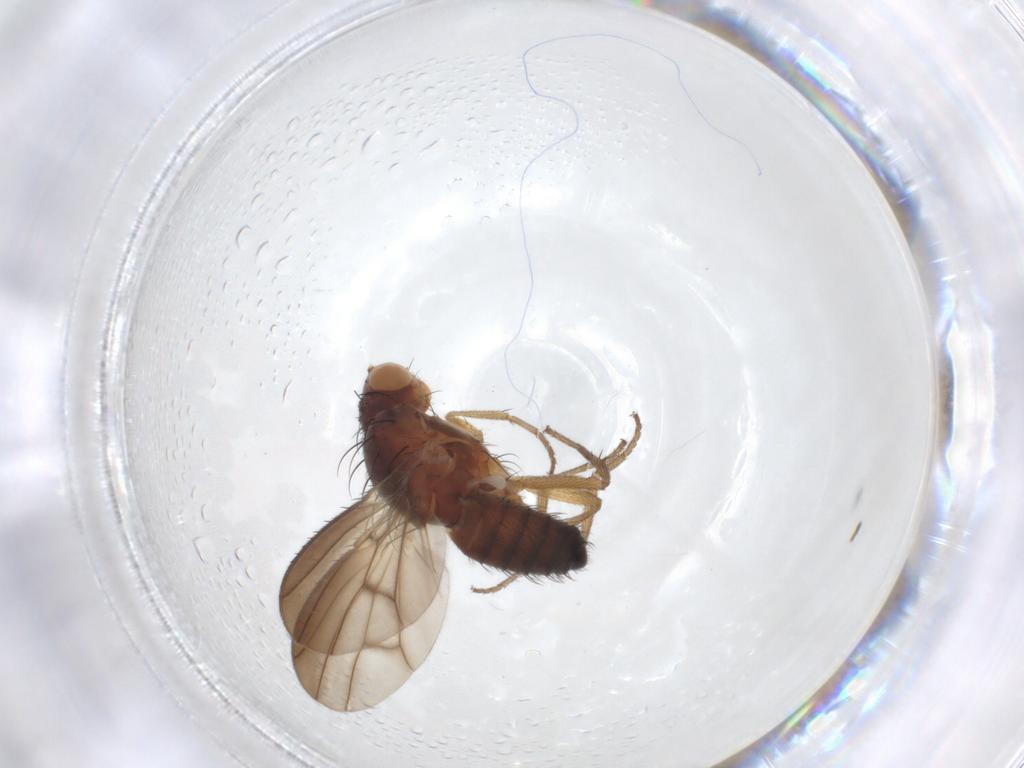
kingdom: Animalia
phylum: Arthropoda
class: Insecta
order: Diptera
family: Heleomyzidae
